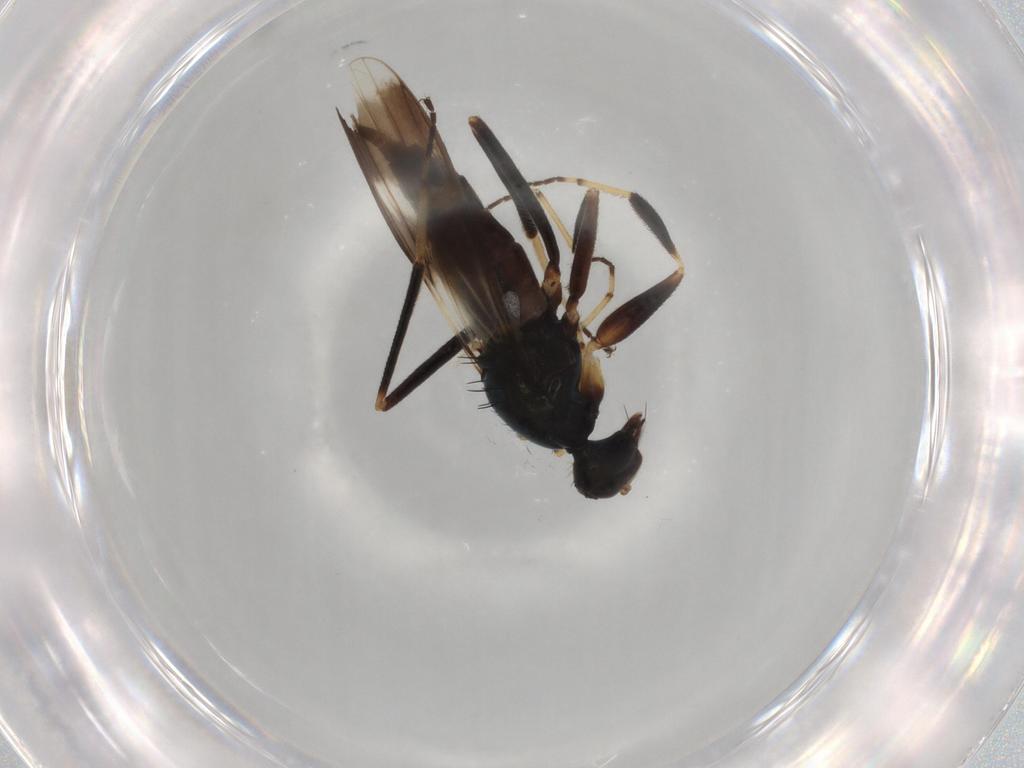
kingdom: Animalia
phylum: Arthropoda
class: Insecta
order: Diptera
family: Hybotidae
